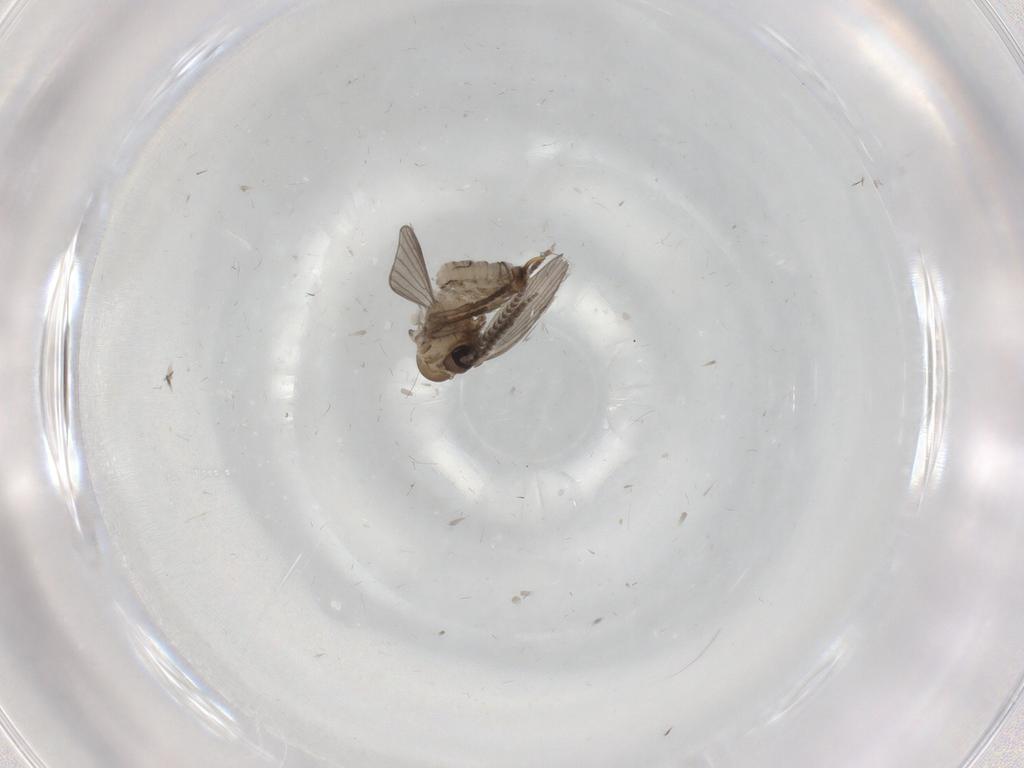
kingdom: Animalia
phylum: Arthropoda
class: Insecta
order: Diptera
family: Psychodidae
